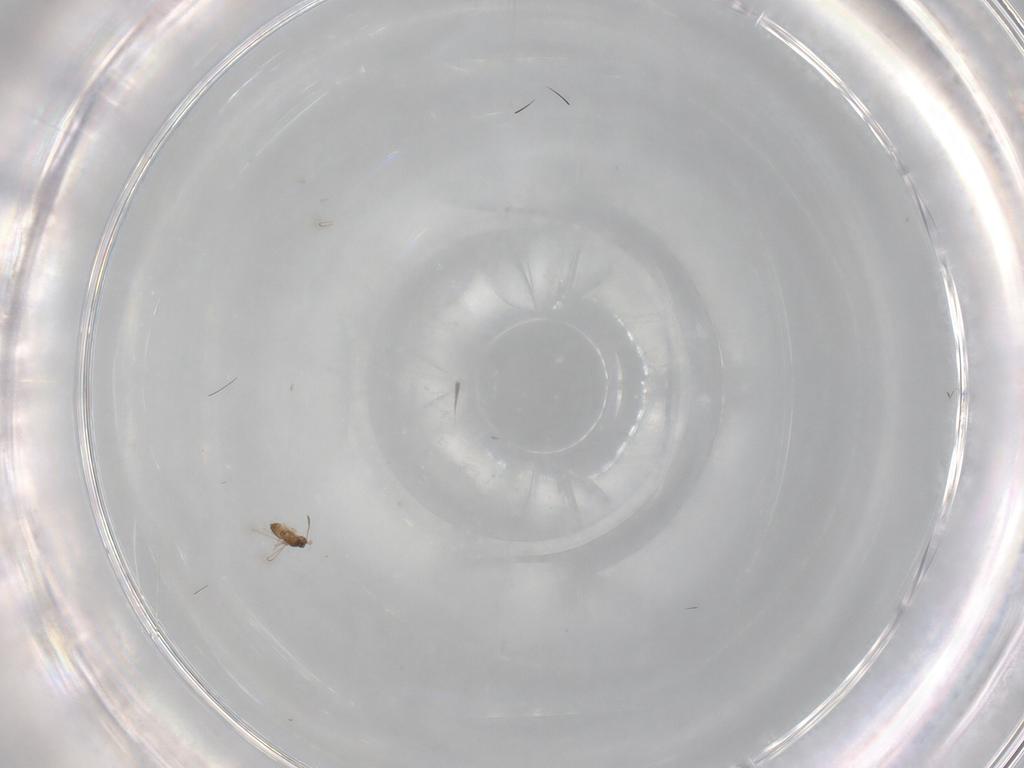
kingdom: Animalia
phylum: Arthropoda
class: Insecta
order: Hymenoptera
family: Mymaridae
